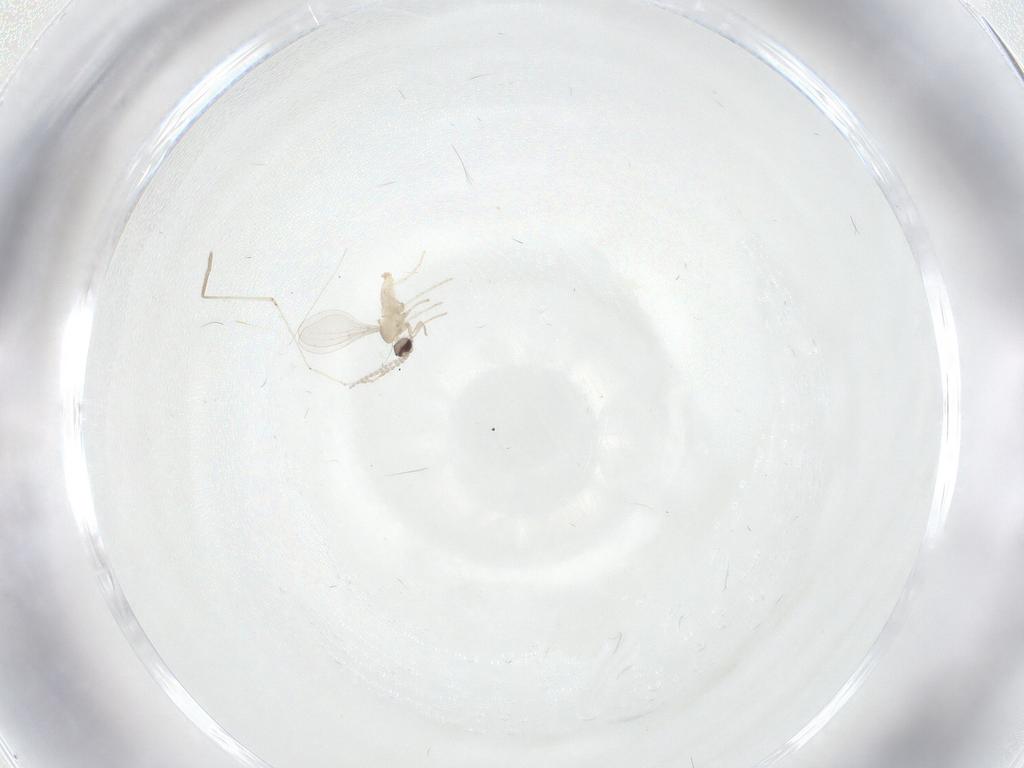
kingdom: Animalia
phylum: Arthropoda
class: Insecta
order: Diptera
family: Cecidomyiidae
